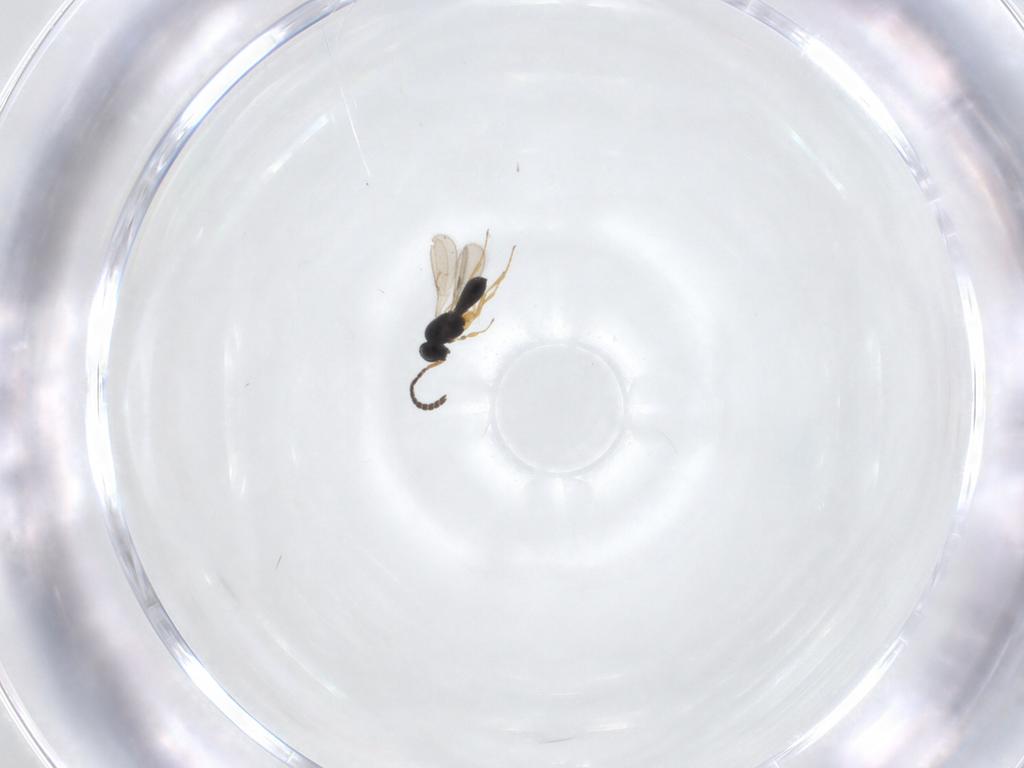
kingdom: Animalia
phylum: Arthropoda
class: Insecta
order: Hymenoptera
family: Scelionidae
